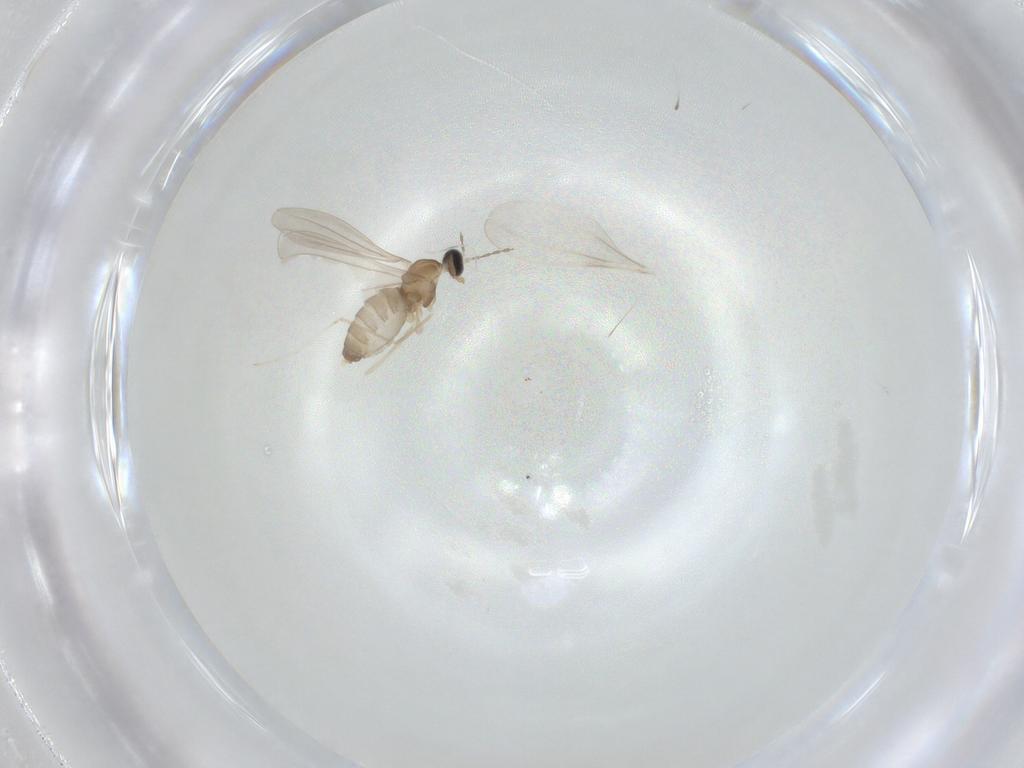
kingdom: Animalia
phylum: Arthropoda
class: Insecta
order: Diptera
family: Cecidomyiidae
